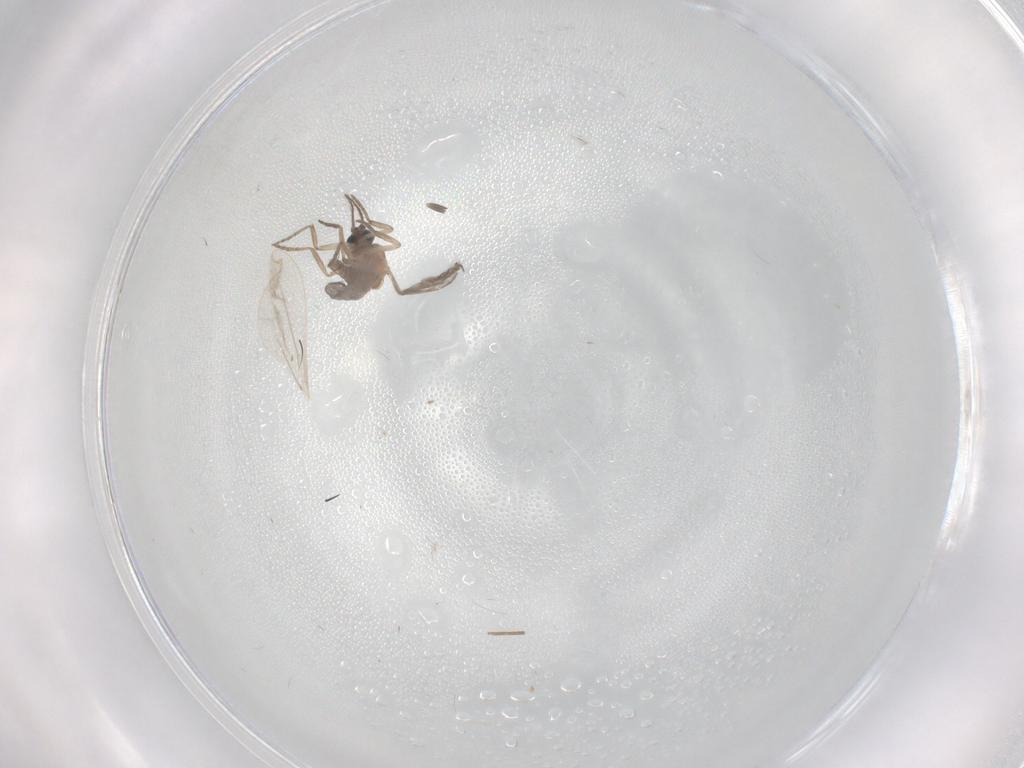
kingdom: Animalia
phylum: Arthropoda
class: Insecta
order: Diptera
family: Chironomidae
